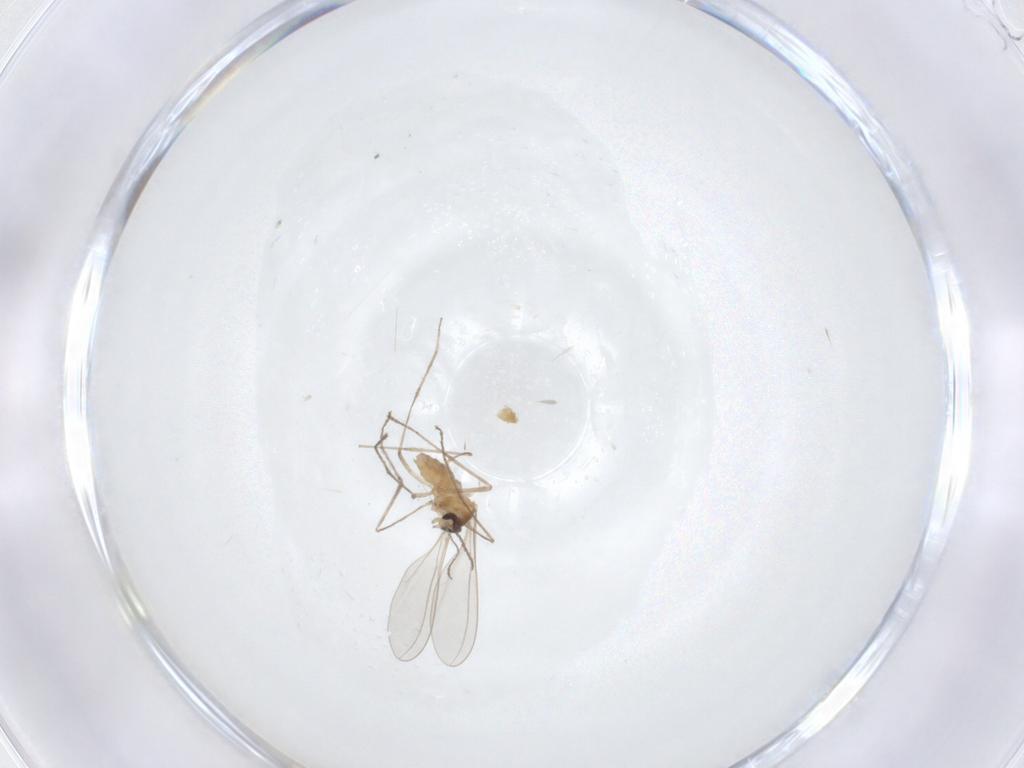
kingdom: Animalia
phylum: Arthropoda
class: Insecta
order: Diptera
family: Cecidomyiidae
